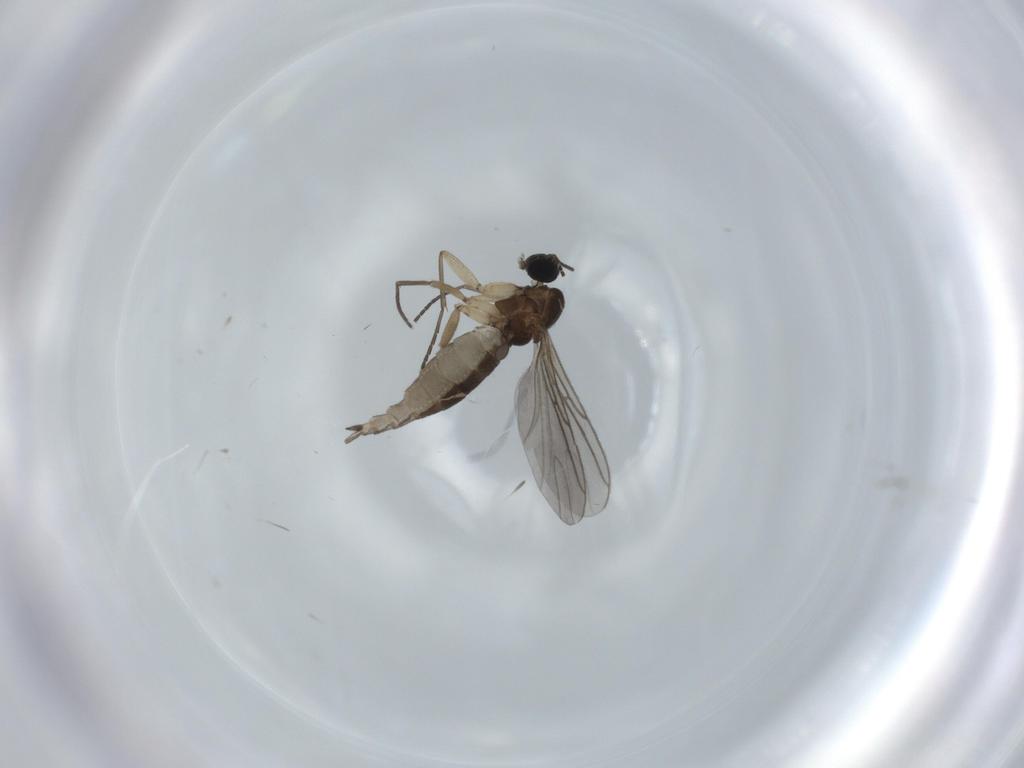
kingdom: Animalia
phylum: Arthropoda
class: Insecta
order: Diptera
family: Sciaridae
